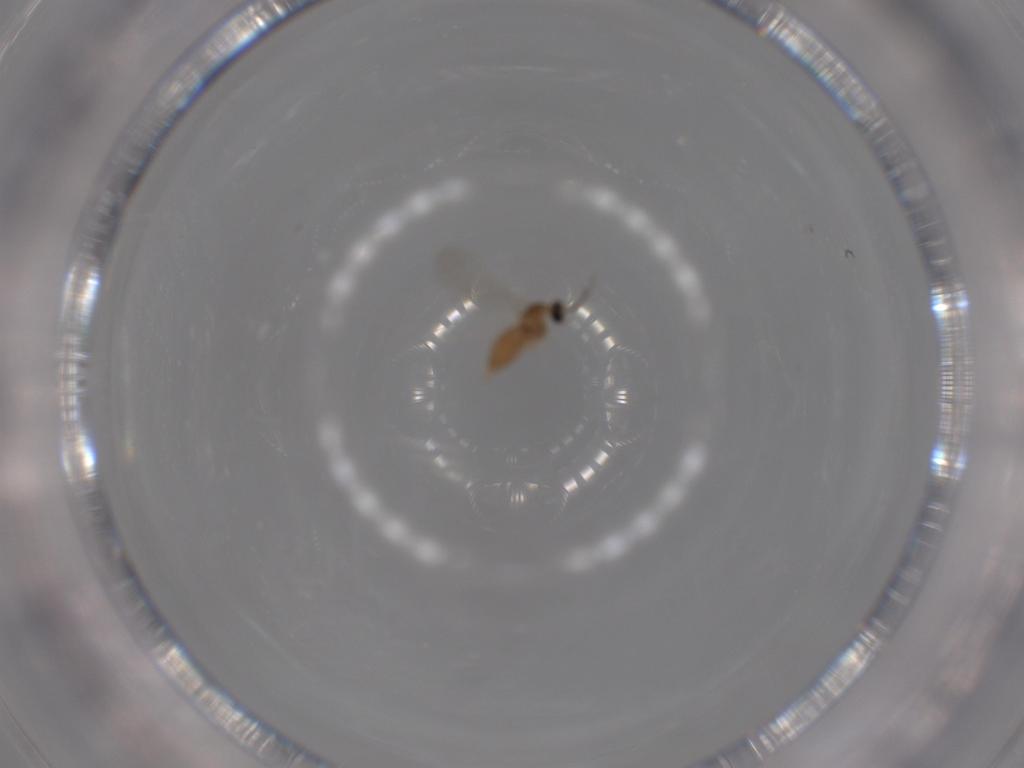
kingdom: Animalia
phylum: Arthropoda
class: Insecta
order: Diptera
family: Cecidomyiidae
